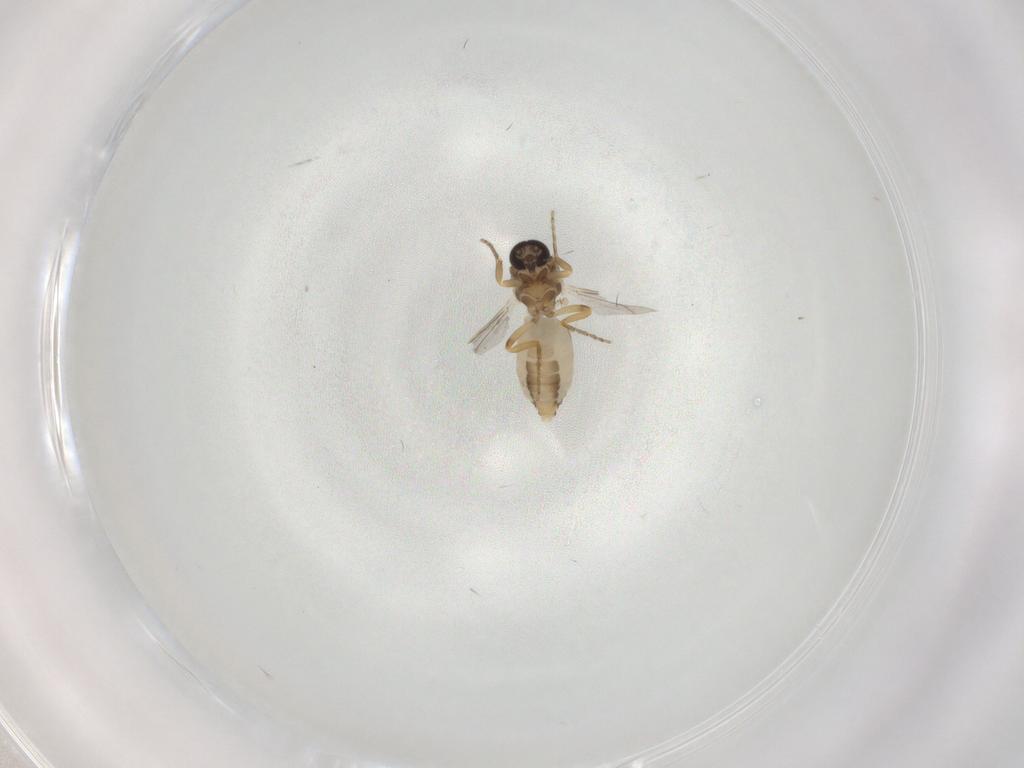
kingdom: Animalia
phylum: Arthropoda
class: Insecta
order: Diptera
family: Ceratopogonidae
